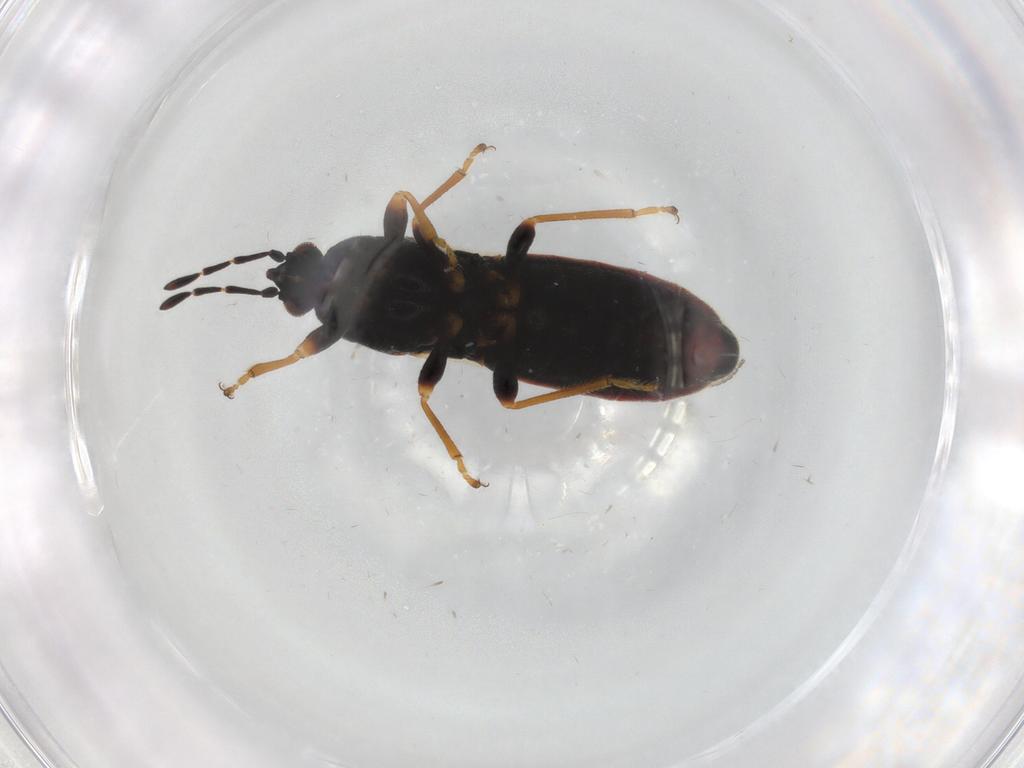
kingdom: Animalia
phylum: Arthropoda
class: Insecta
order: Hemiptera
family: Blissidae
